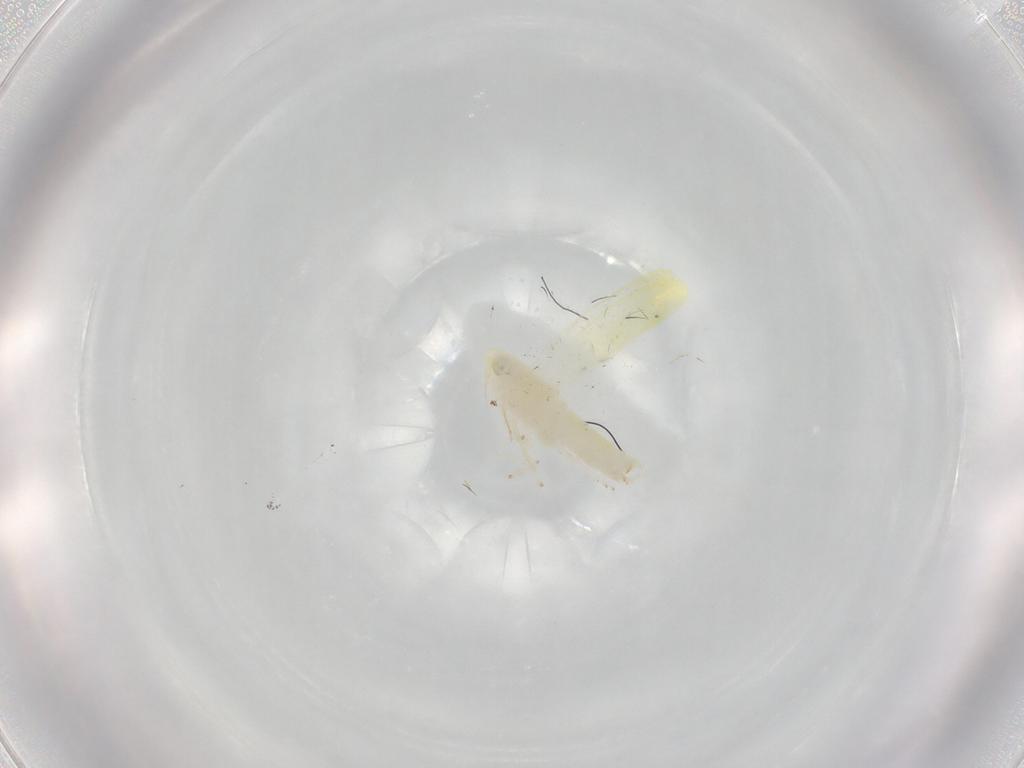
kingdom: Animalia
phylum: Arthropoda
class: Insecta
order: Hemiptera
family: Cicadellidae
